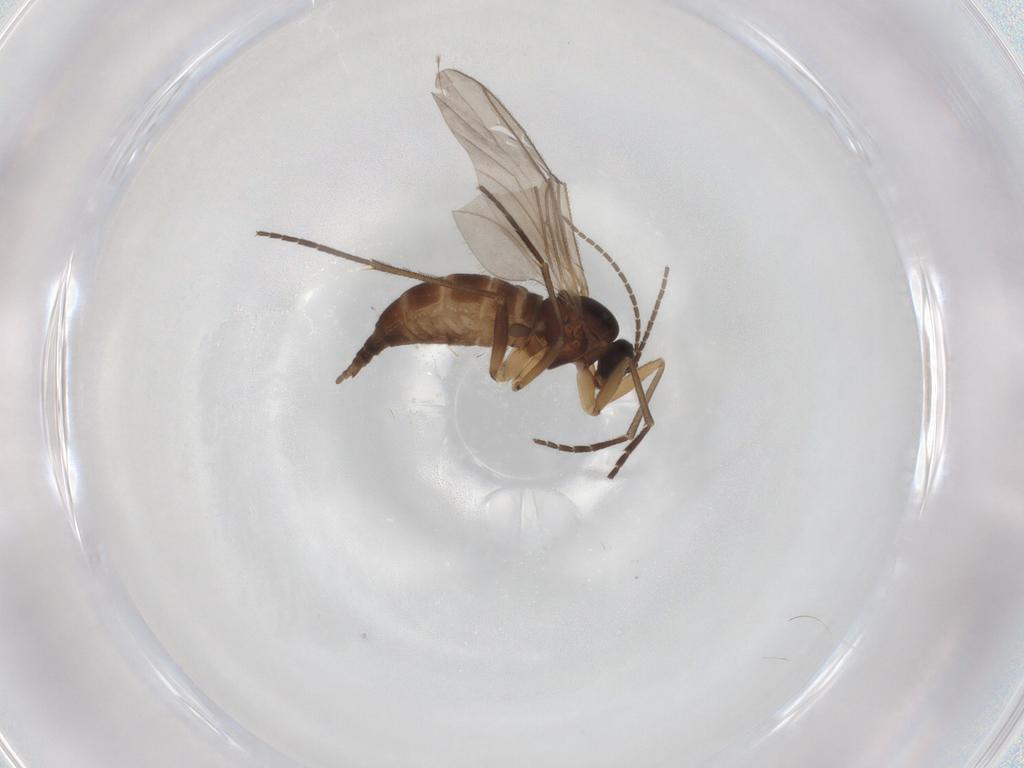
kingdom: Animalia
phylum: Arthropoda
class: Insecta
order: Diptera
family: Sciaridae
